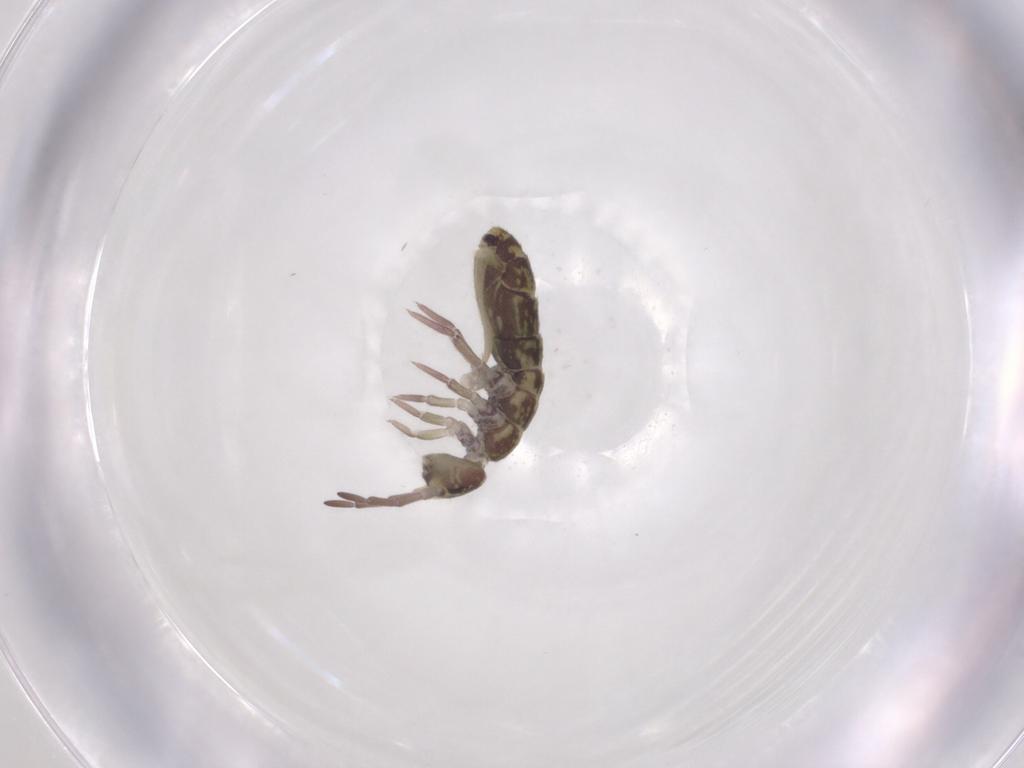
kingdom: Animalia
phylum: Arthropoda
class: Collembola
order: Entomobryomorpha
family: Isotomidae
